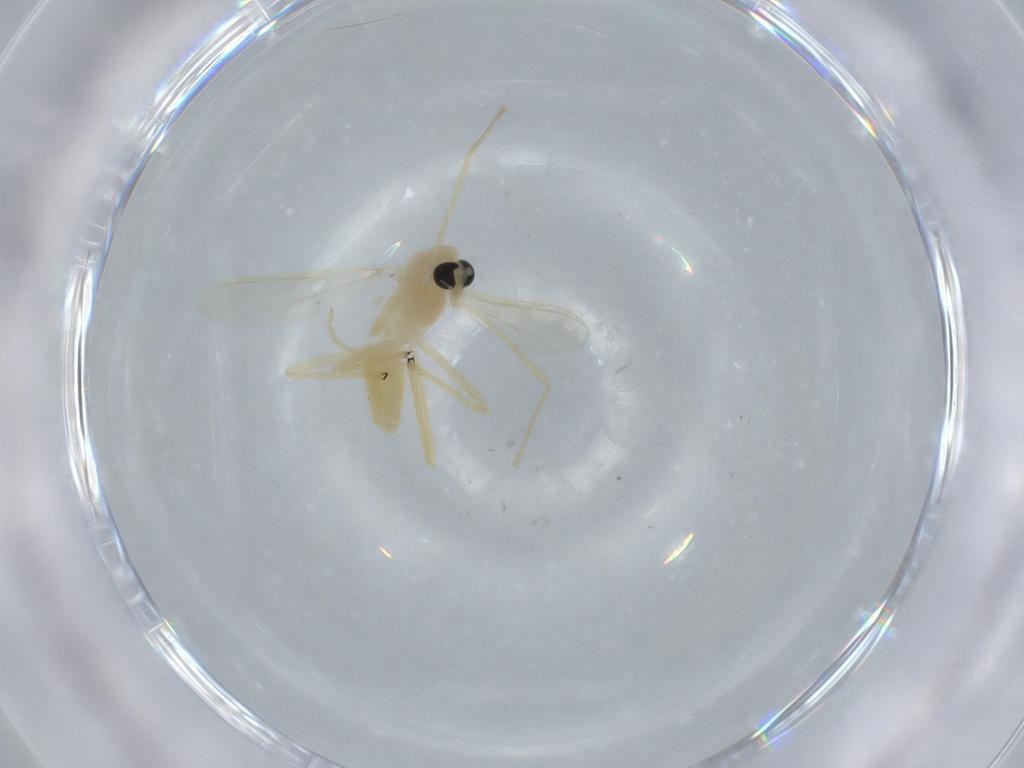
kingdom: Animalia
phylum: Arthropoda
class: Insecta
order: Diptera
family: Chironomidae
